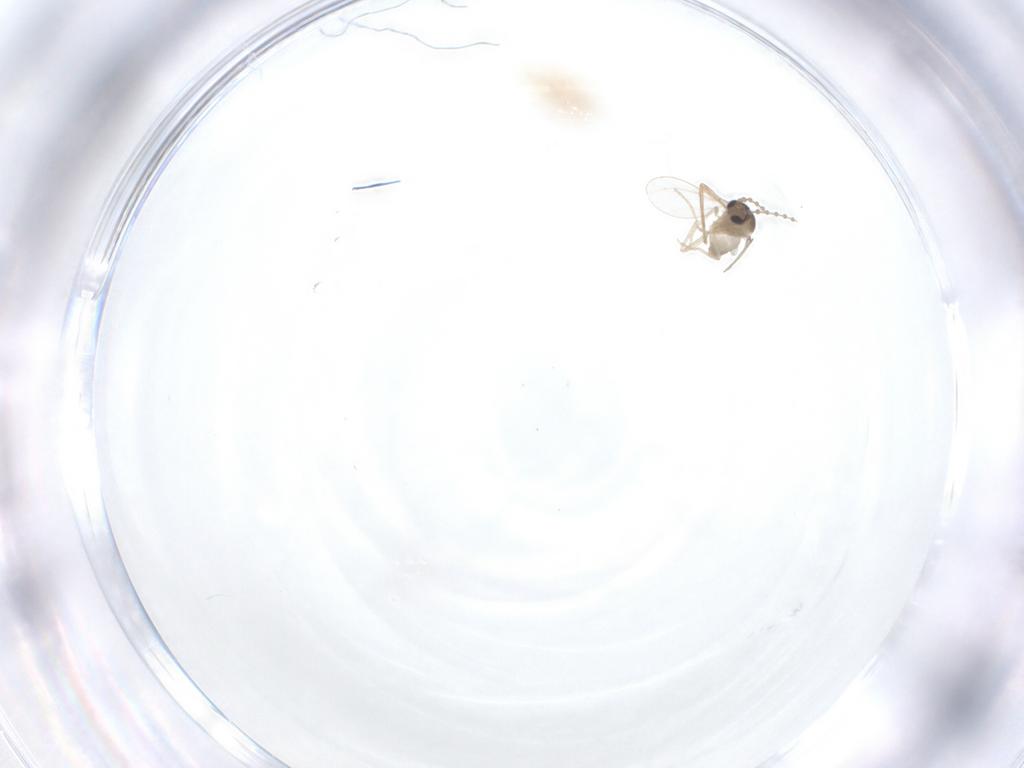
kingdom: Animalia
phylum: Arthropoda
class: Insecta
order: Diptera
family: Cecidomyiidae
